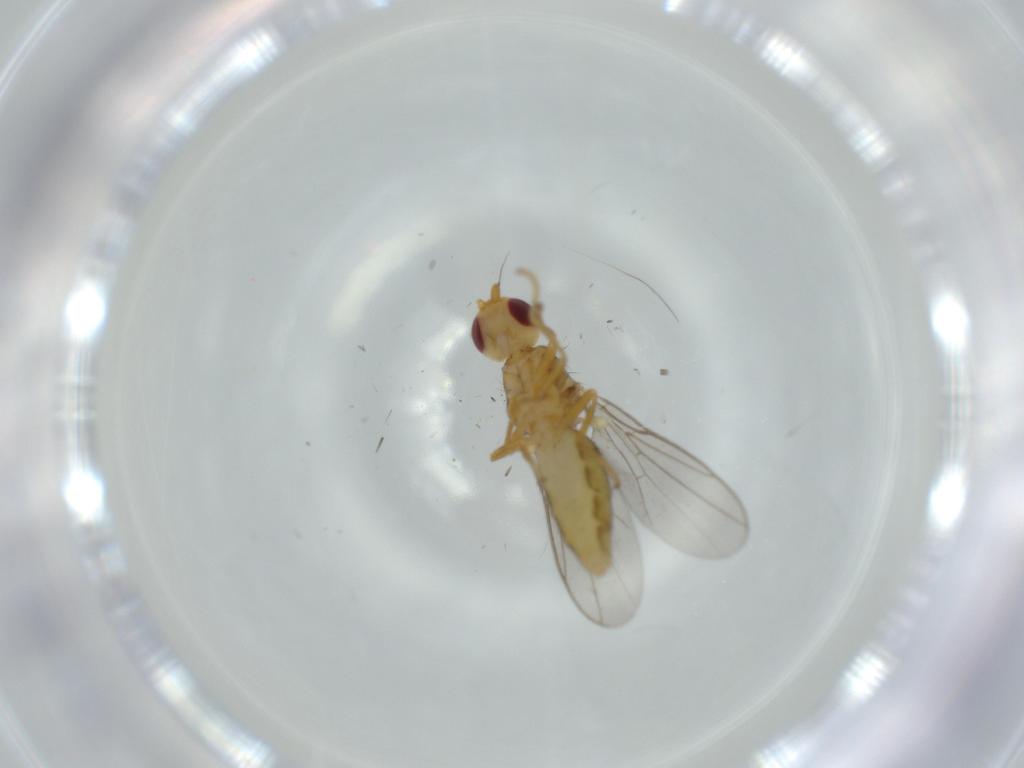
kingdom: Animalia
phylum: Arthropoda
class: Insecta
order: Diptera
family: Chloropidae
